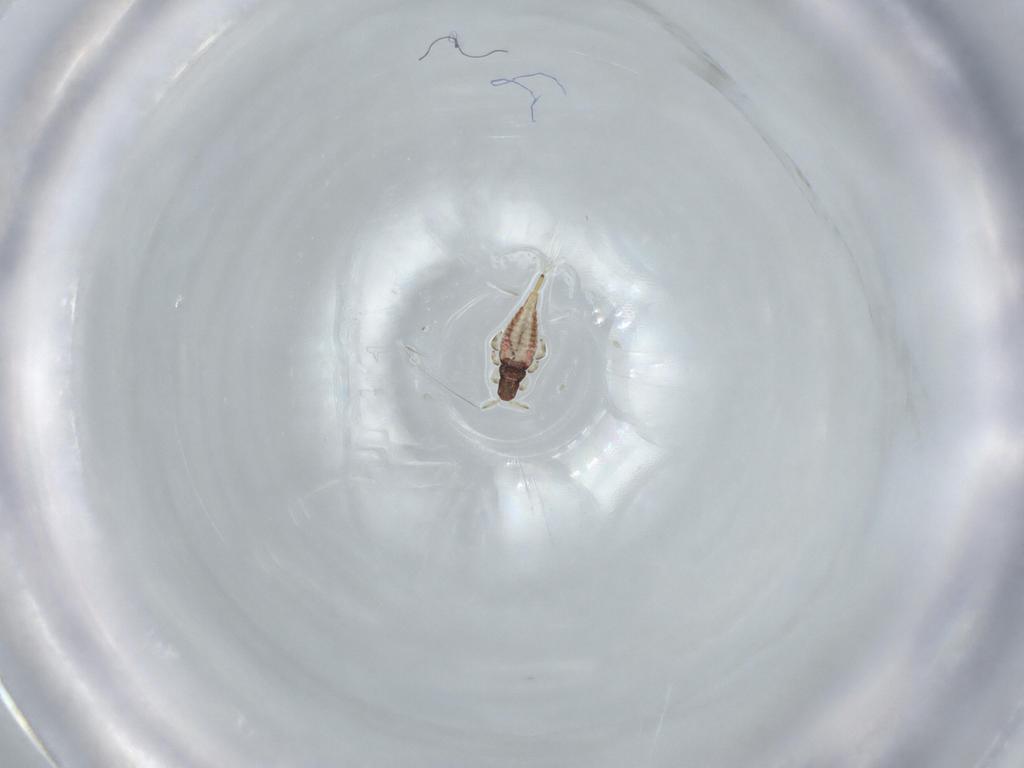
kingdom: Animalia
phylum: Arthropoda
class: Insecta
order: Thysanoptera
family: Phlaeothripidae
